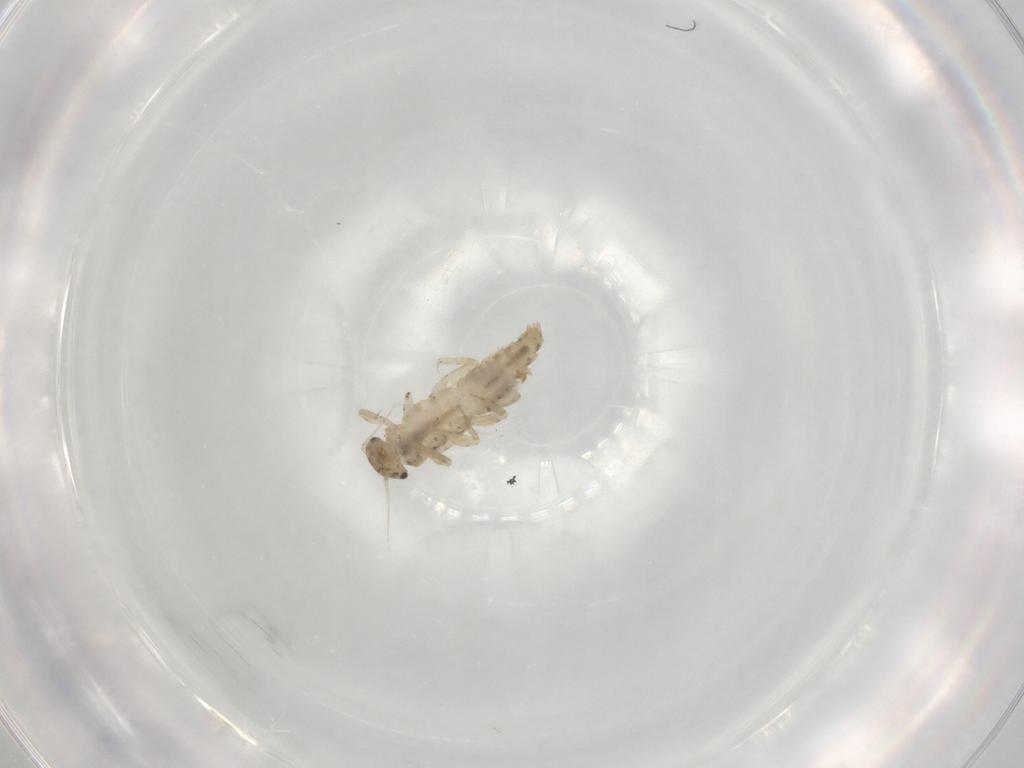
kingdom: Animalia
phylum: Arthropoda
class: Insecta
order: Ephemeroptera
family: Caenidae
